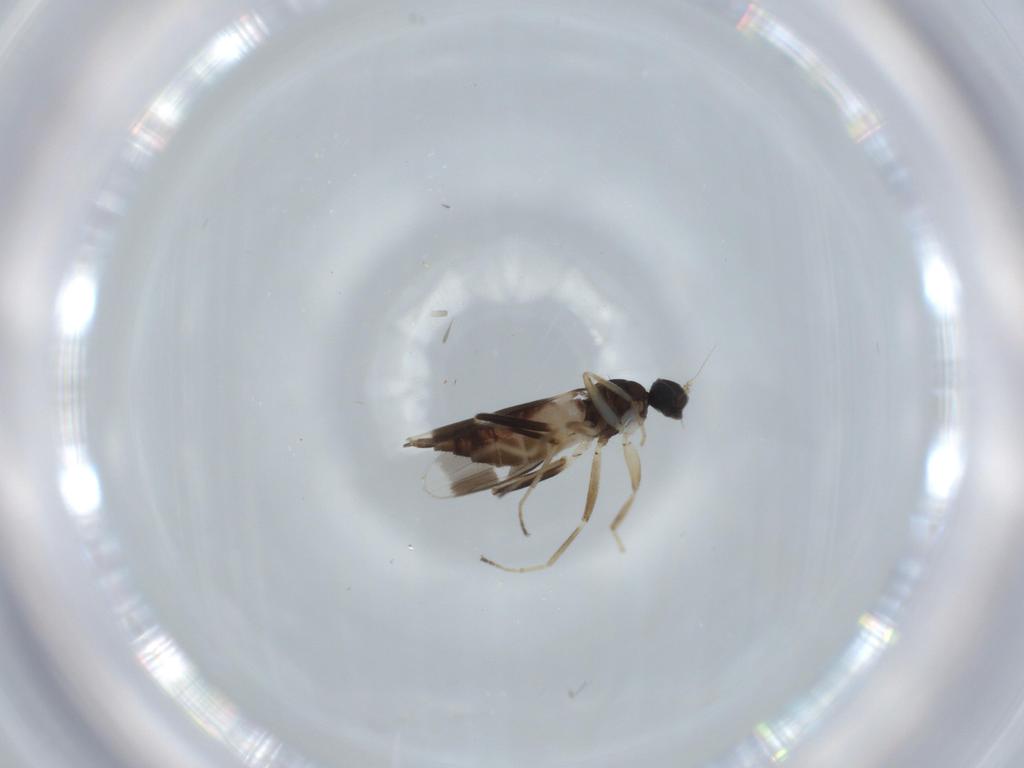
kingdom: Animalia
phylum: Arthropoda
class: Insecta
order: Diptera
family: Hybotidae
